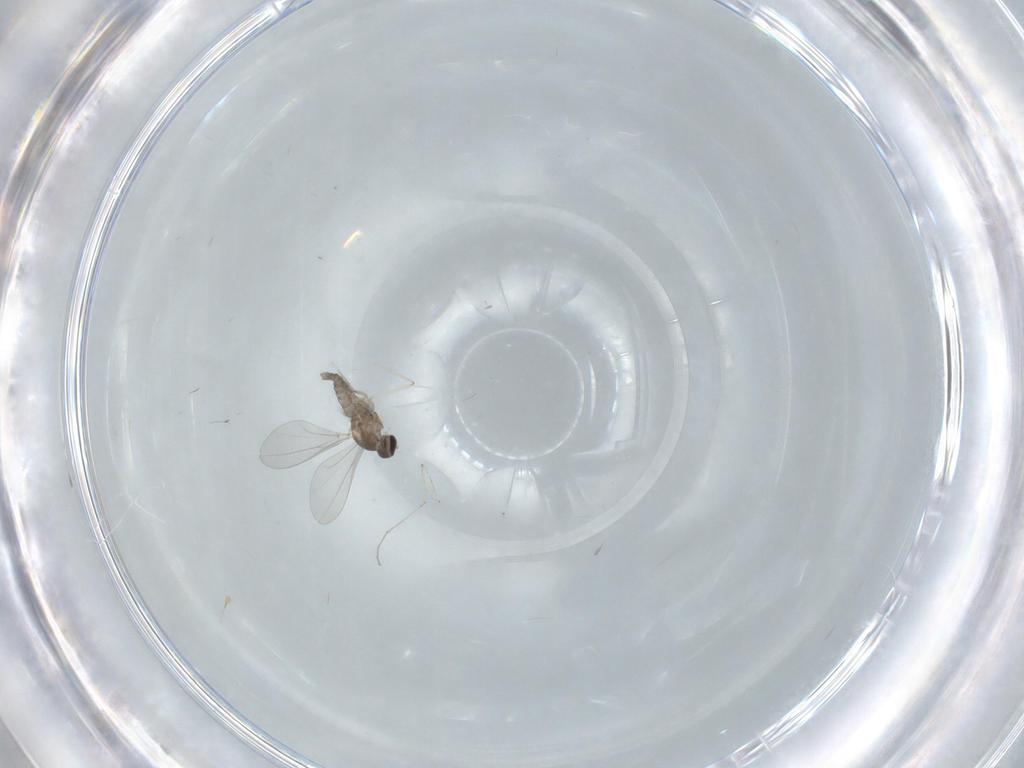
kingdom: Animalia
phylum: Arthropoda
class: Insecta
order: Diptera
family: Cecidomyiidae
